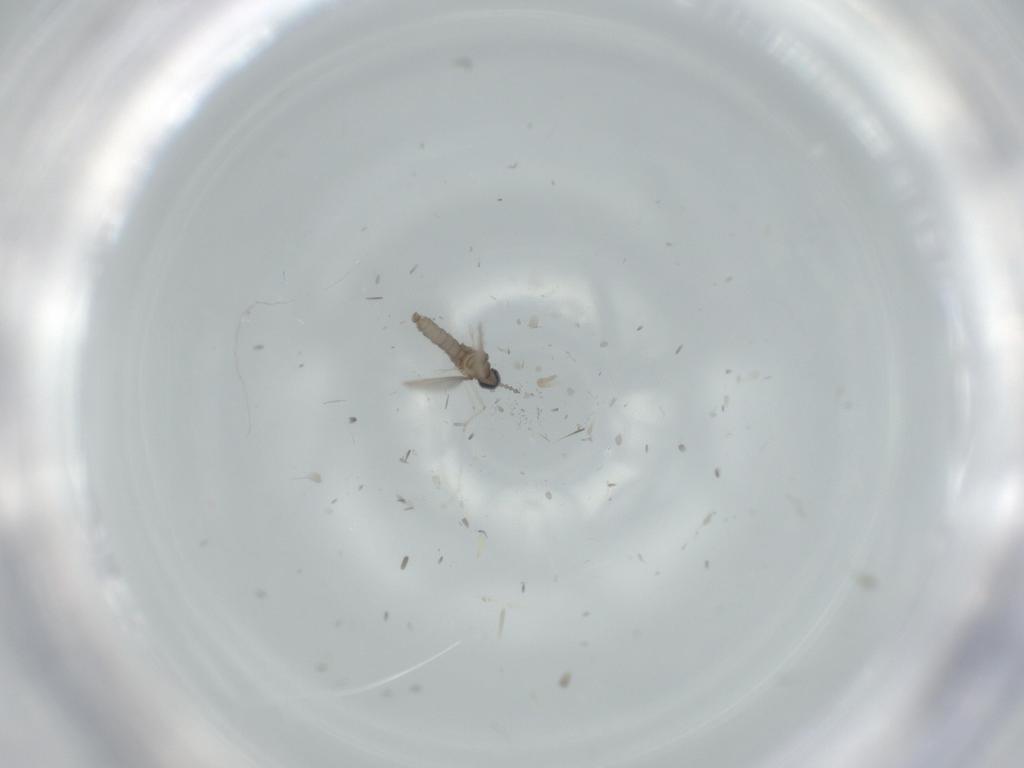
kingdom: Animalia
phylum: Arthropoda
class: Insecta
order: Diptera
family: Cecidomyiidae
